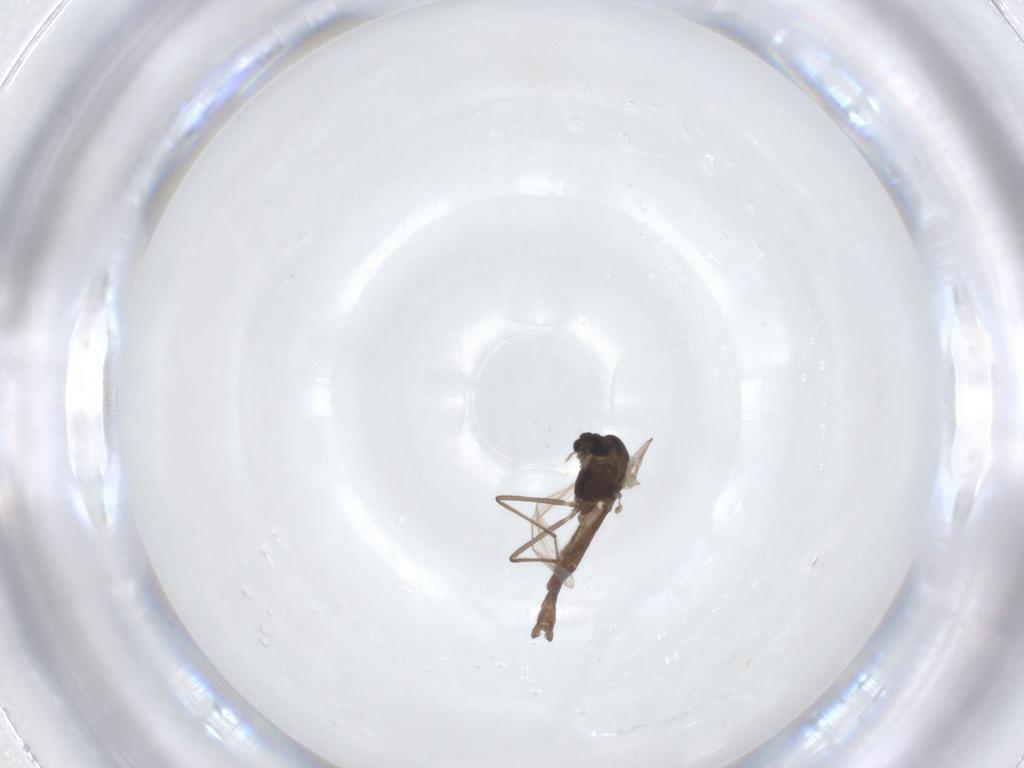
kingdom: Animalia
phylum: Arthropoda
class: Insecta
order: Diptera
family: Chironomidae
